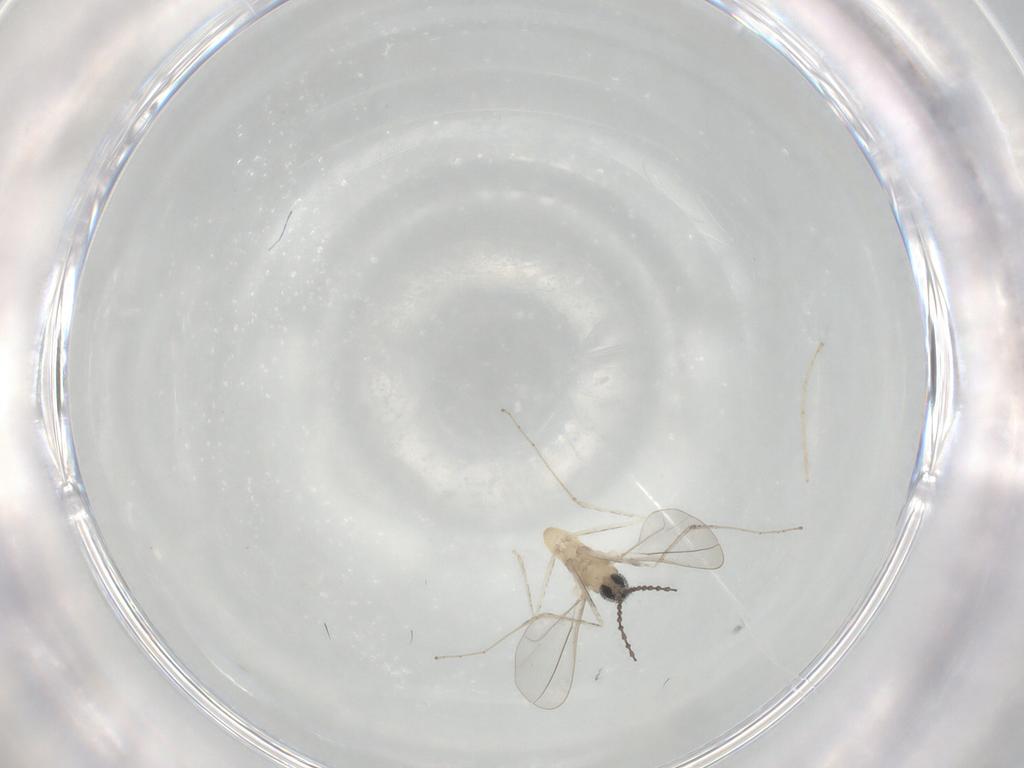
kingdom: Animalia
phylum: Arthropoda
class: Insecta
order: Diptera
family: Cecidomyiidae
